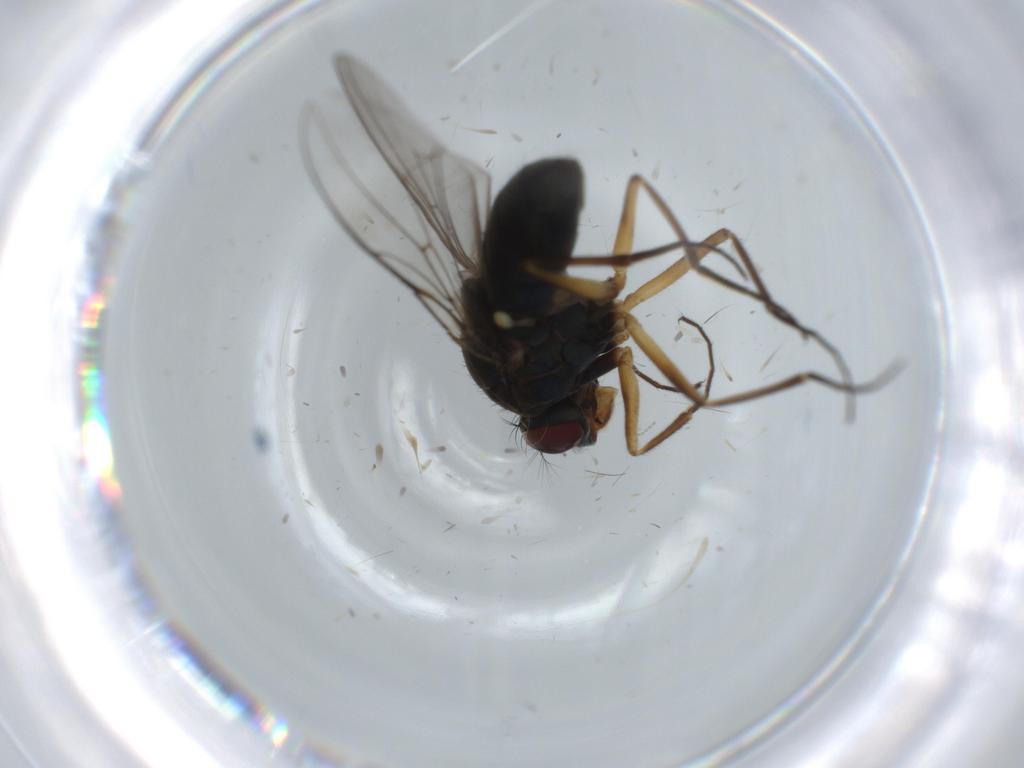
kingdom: Animalia
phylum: Arthropoda
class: Insecta
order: Diptera
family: Ephydridae
